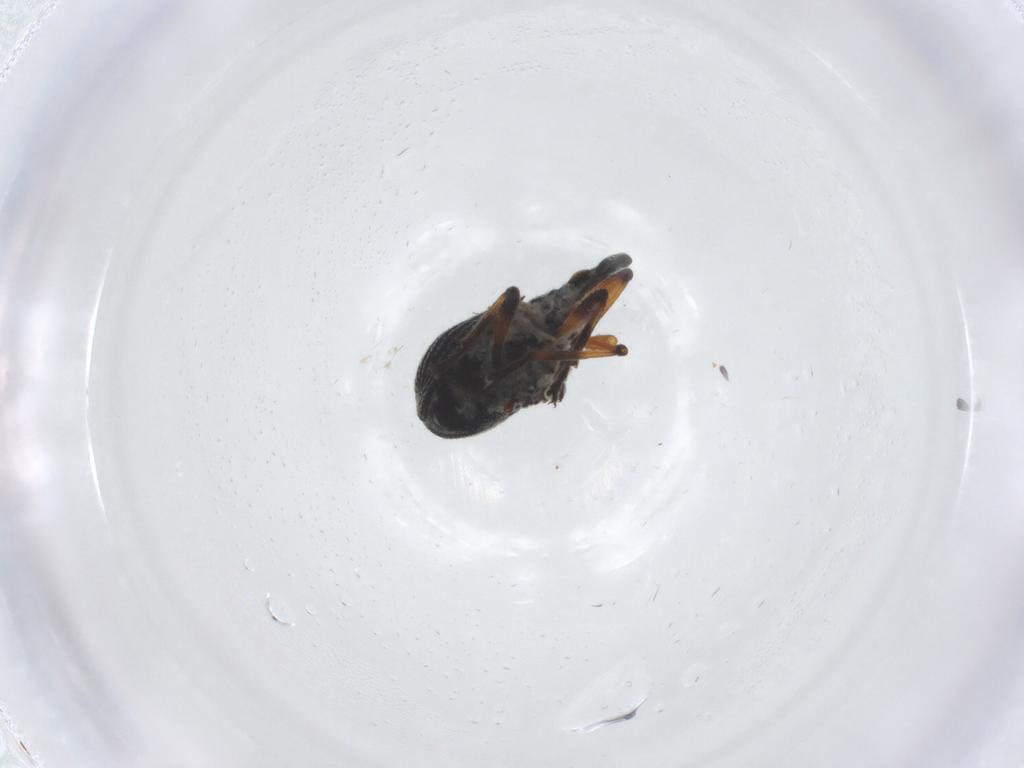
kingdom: Animalia
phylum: Arthropoda
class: Insecta
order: Coleoptera
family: Brentidae
